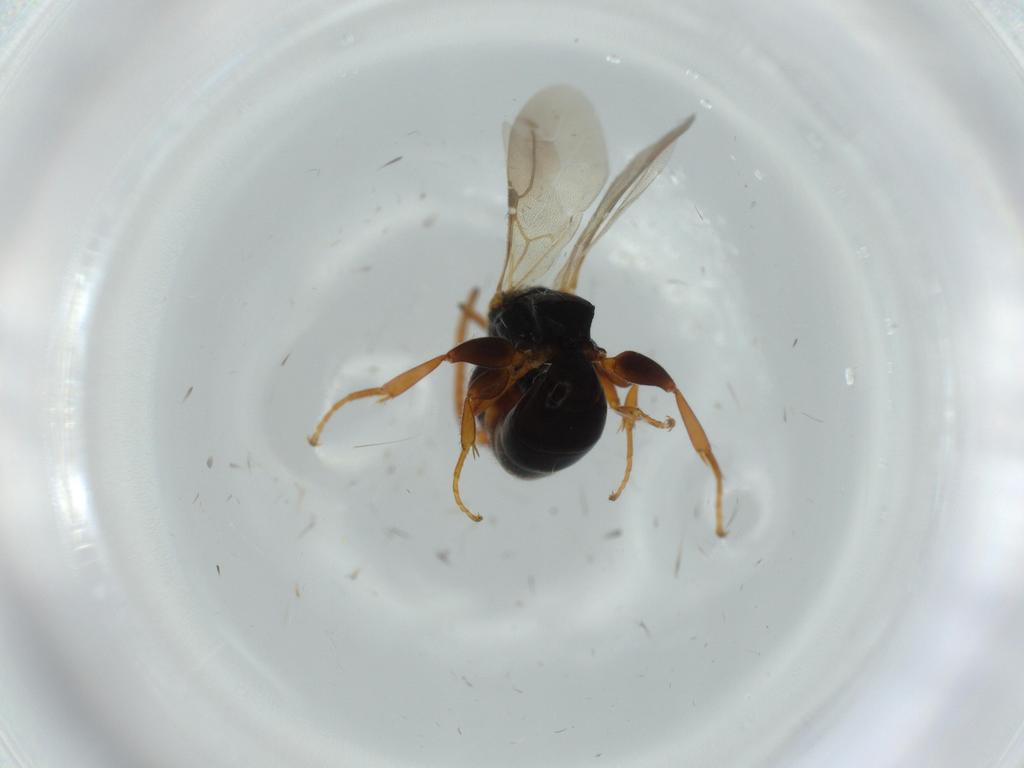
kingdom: Animalia
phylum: Arthropoda
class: Insecta
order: Hymenoptera
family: Bethylidae
